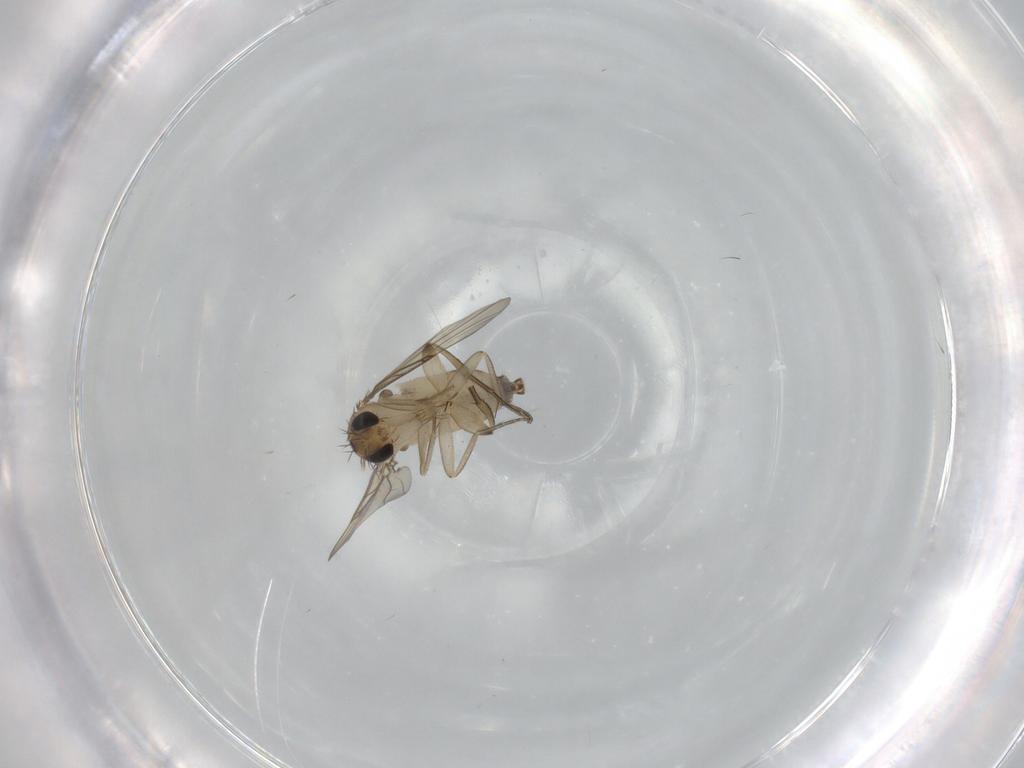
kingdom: Animalia
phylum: Arthropoda
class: Insecta
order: Diptera
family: Phoridae
